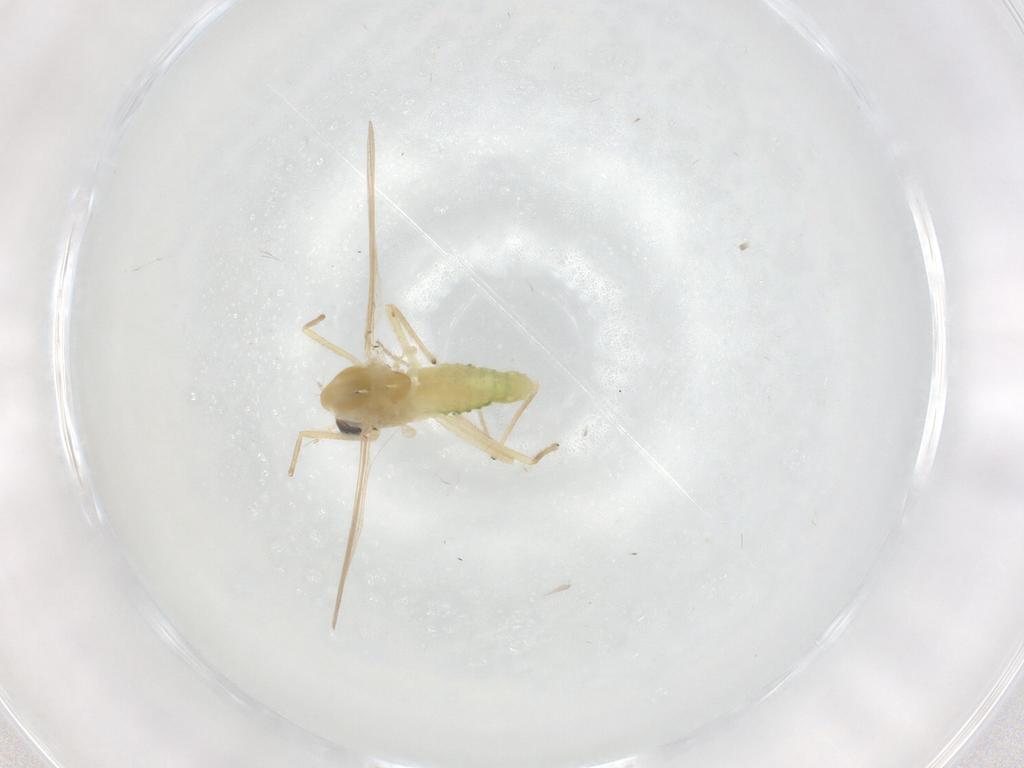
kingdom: Animalia
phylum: Arthropoda
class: Insecta
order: Diptera
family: Chironomidae
